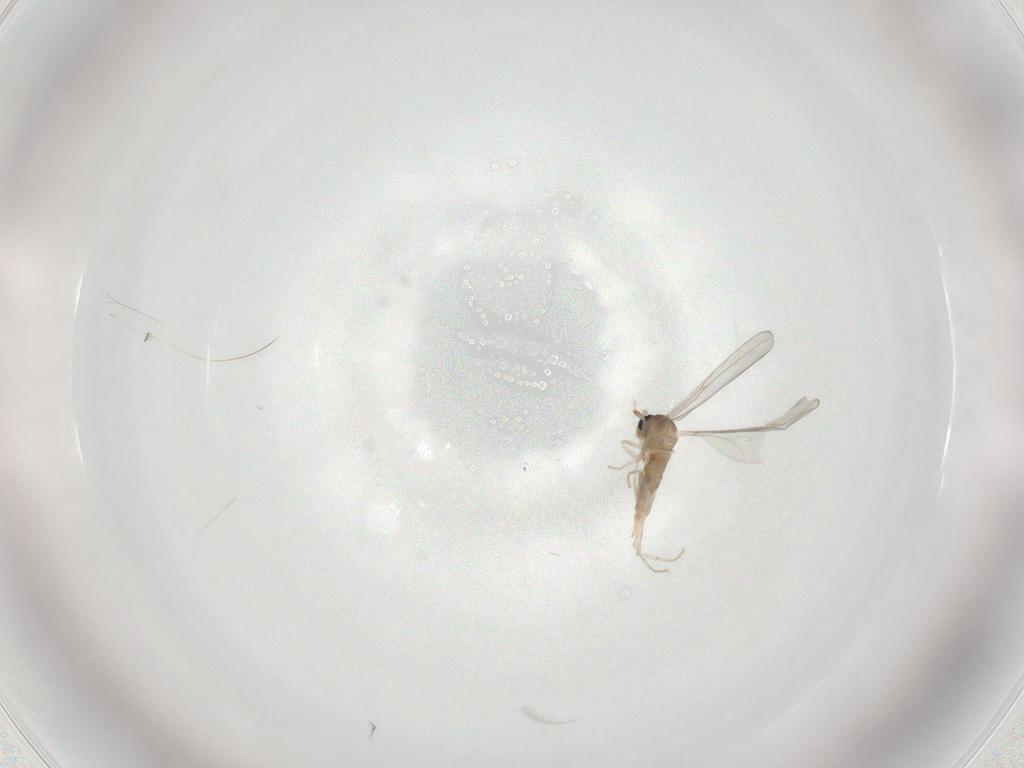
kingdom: Animalia
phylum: Arthropoda
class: Insecta
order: Diptera
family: Cecidomyiidae
